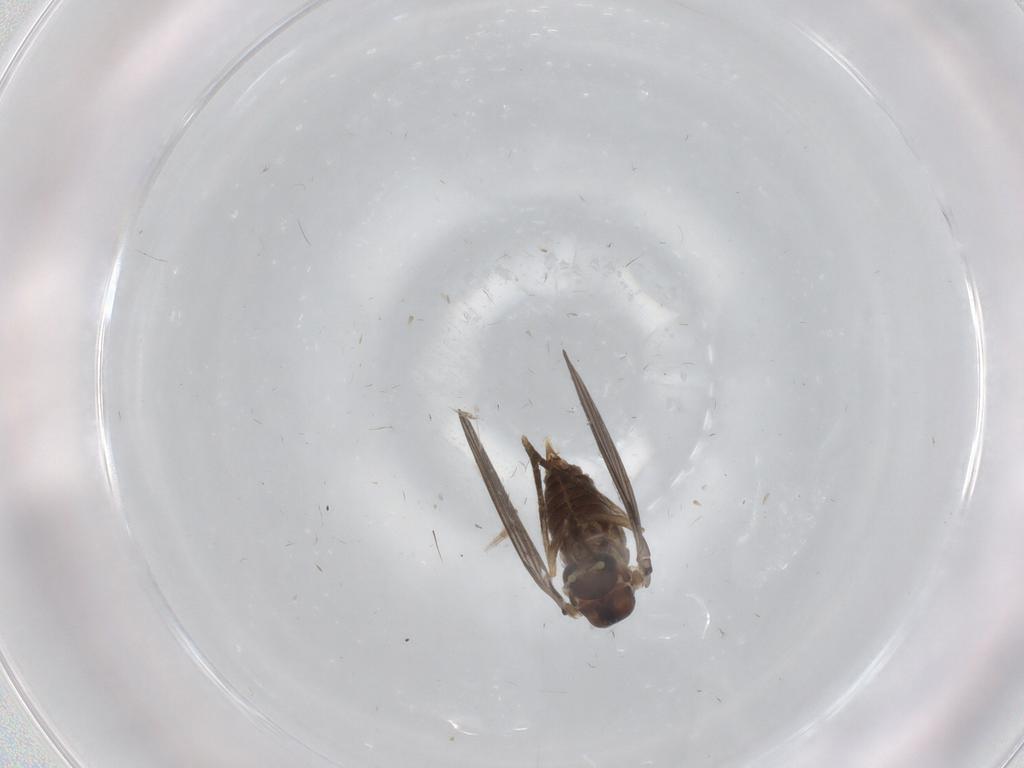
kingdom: Animalia
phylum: Arthropoda
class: Insecta
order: Diptera
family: Psychodidae
